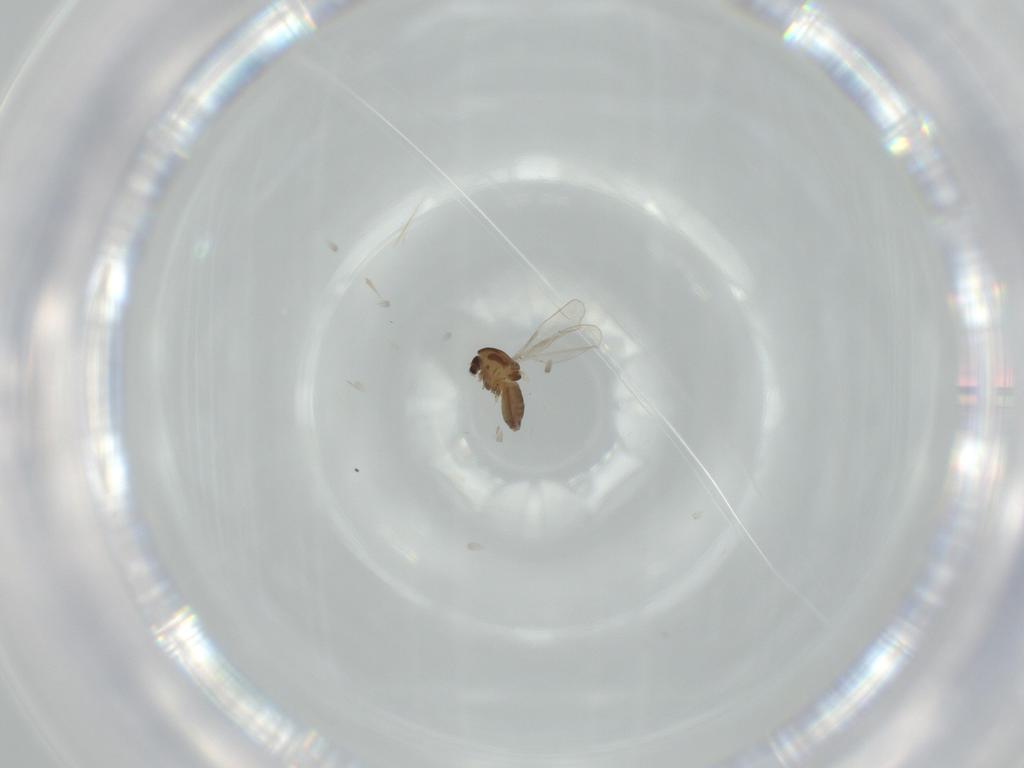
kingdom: Animalia
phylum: Arthropoda
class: Insecta
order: Diptera
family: Chironomidae
